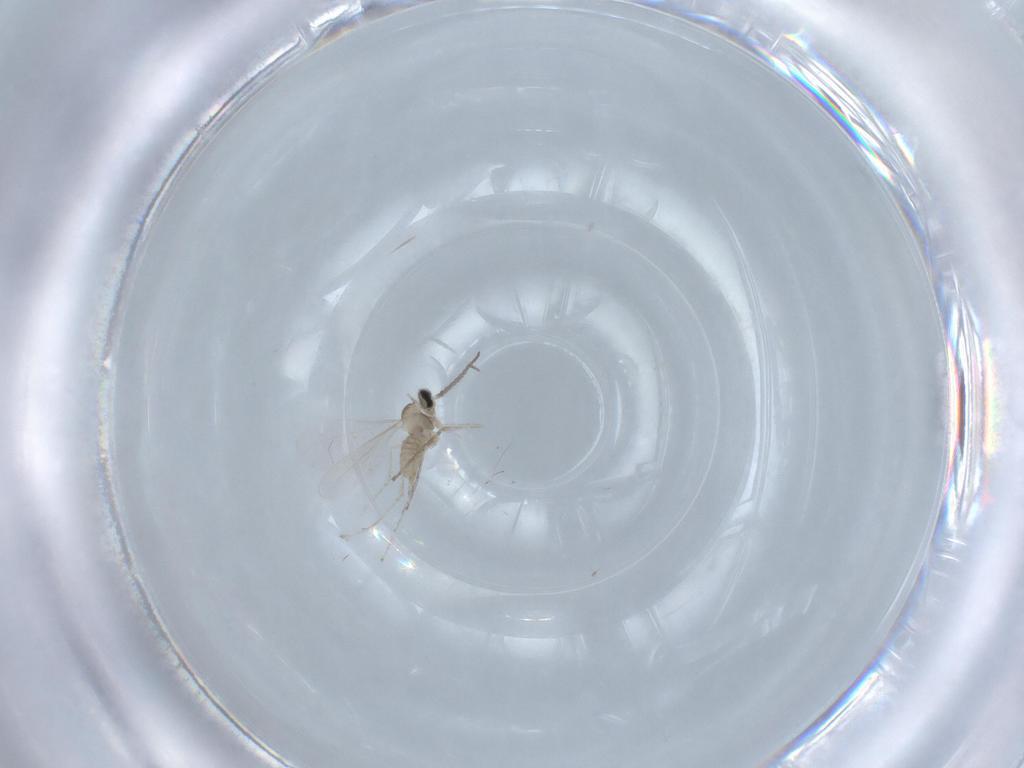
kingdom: Animalia
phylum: Arthropoda
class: Insecta
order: Diptera
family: Cecidomyiidae
